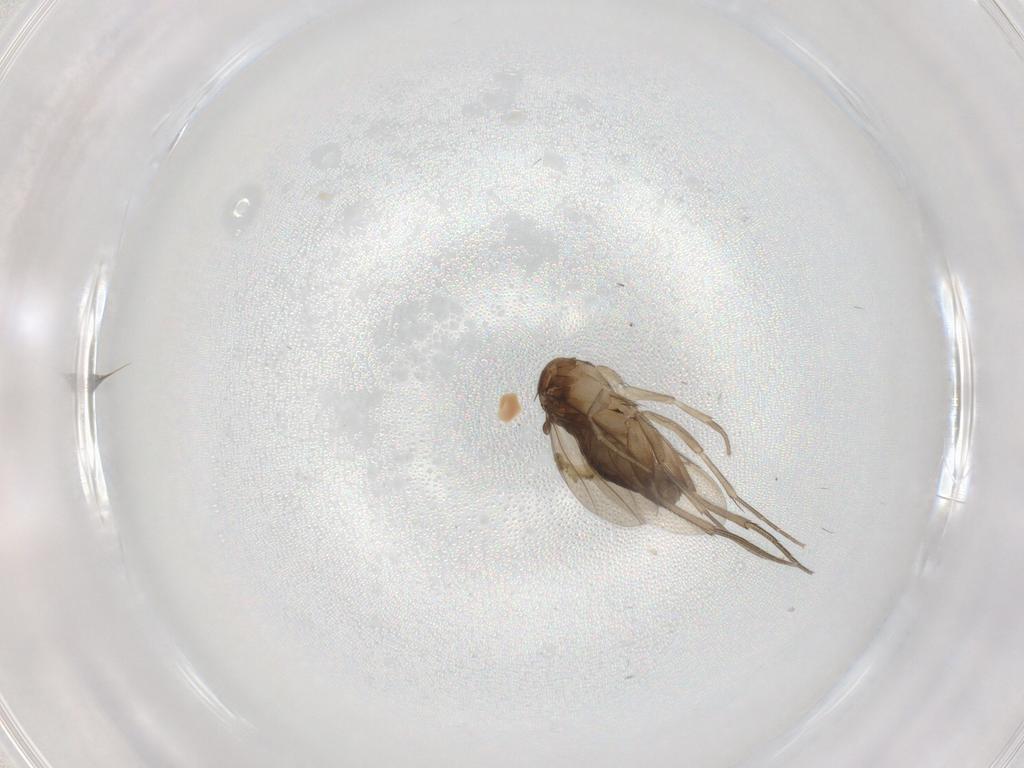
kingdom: Animalia
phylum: Arthropoda
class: Insecta
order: Diptera
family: Phoridae
